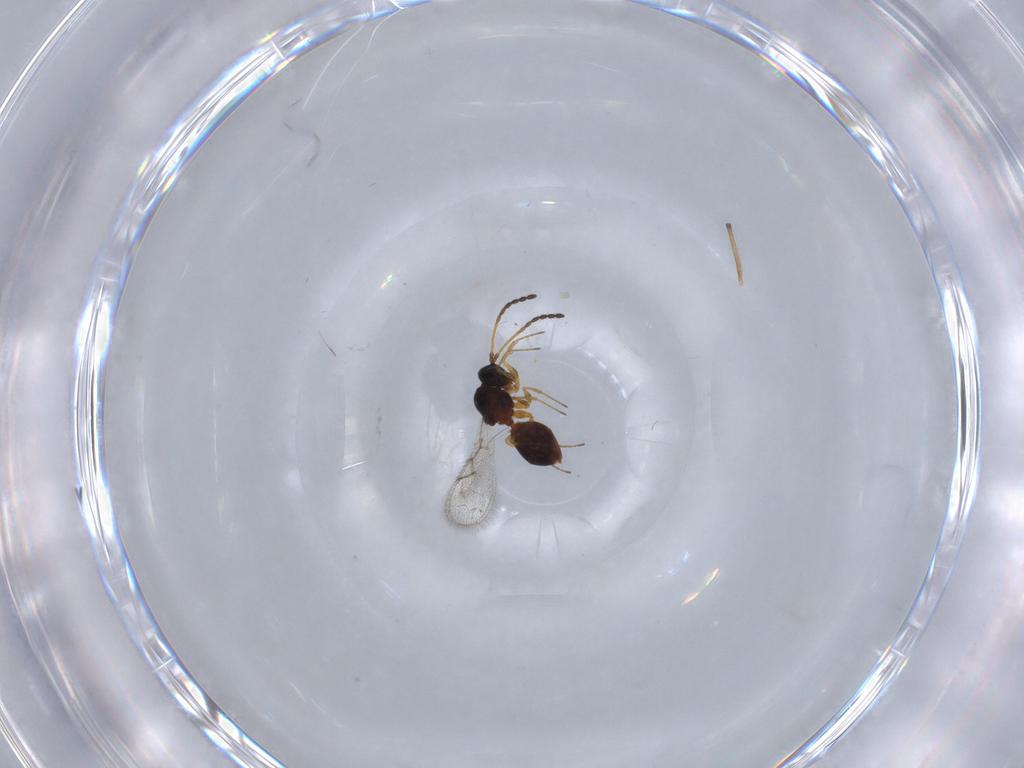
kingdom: Animalia
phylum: Arthropoda
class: Insecta
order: Hymenoptera
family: Figitidae
